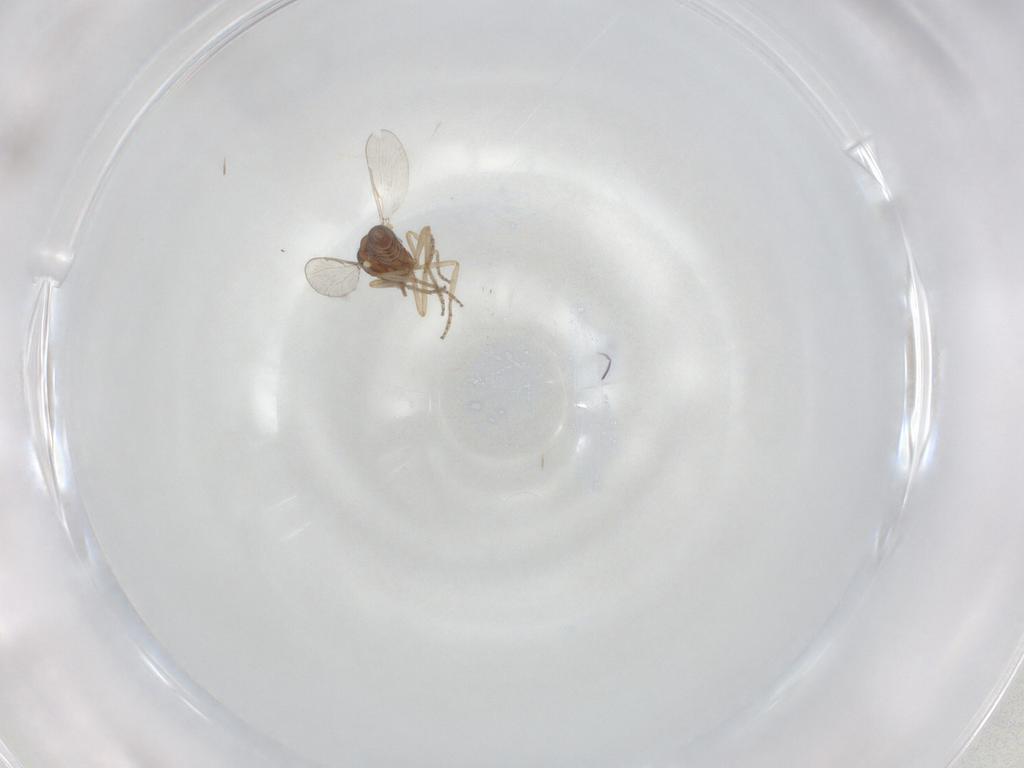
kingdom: Animalia
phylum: Arthropoda
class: Insecta
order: Diptera
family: Ceratopogonidae
